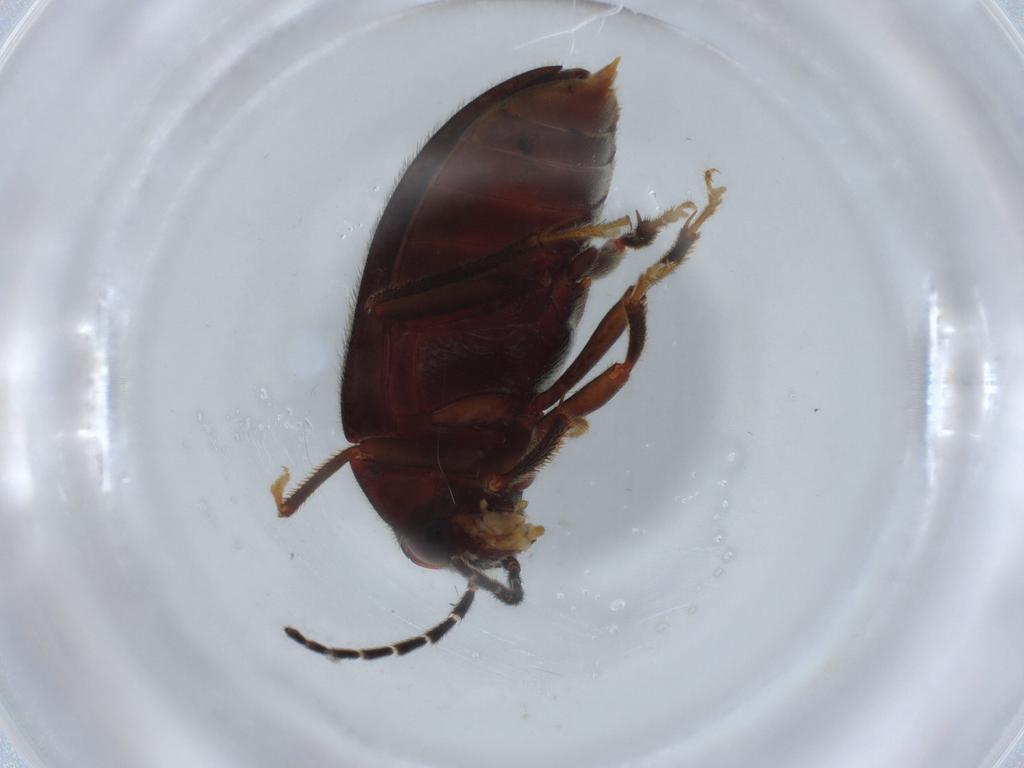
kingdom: Animalia
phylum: Arthropoda
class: Insecta
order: Coleoptera
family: Ptilodactylidae
